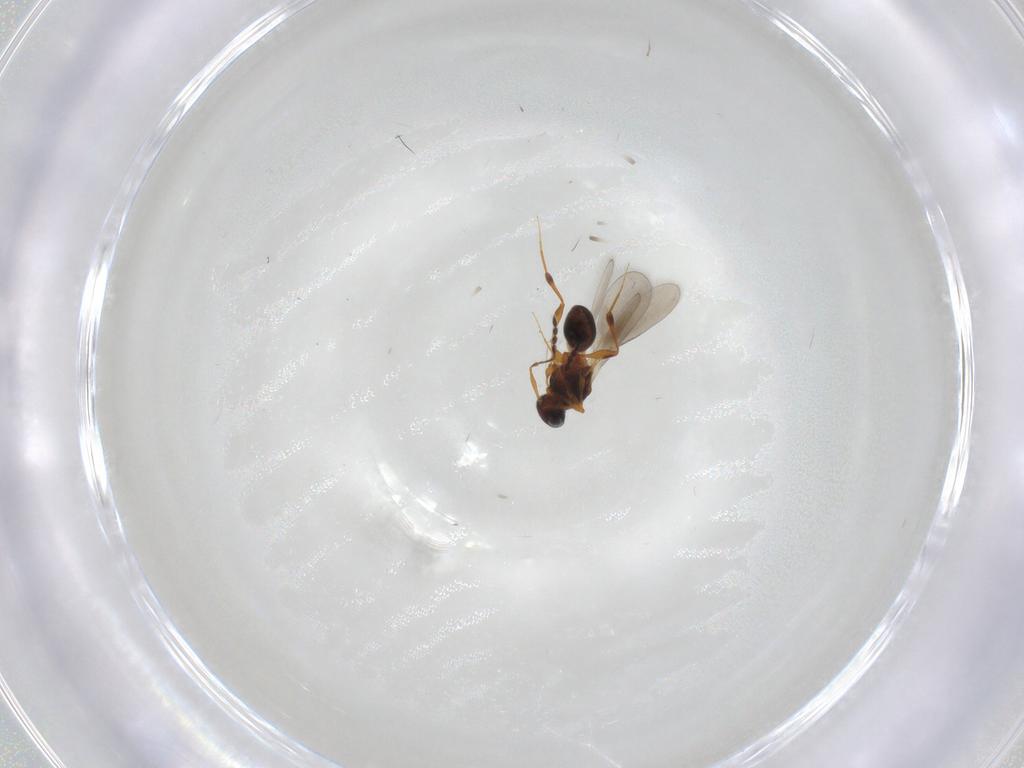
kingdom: Animalia
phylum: Arthropoda
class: Insecta
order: Hymenoptera
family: Platygastridae
